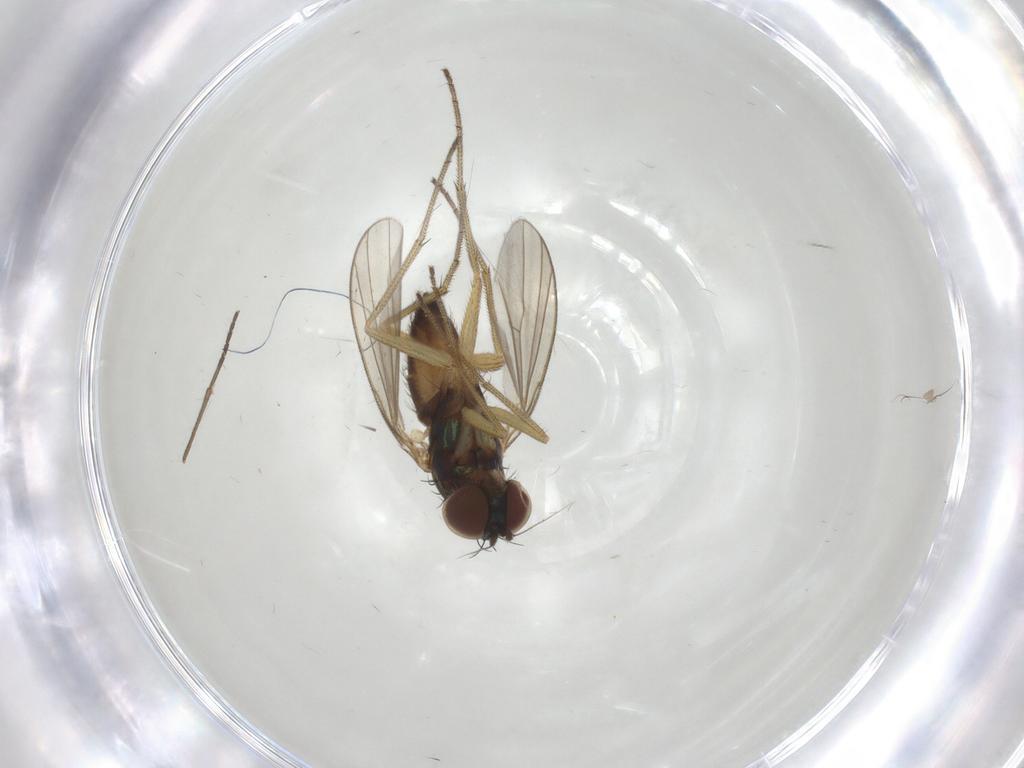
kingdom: Animalia
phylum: Arthropoda
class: Insecta
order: Diptera
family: Dolichopodidae
